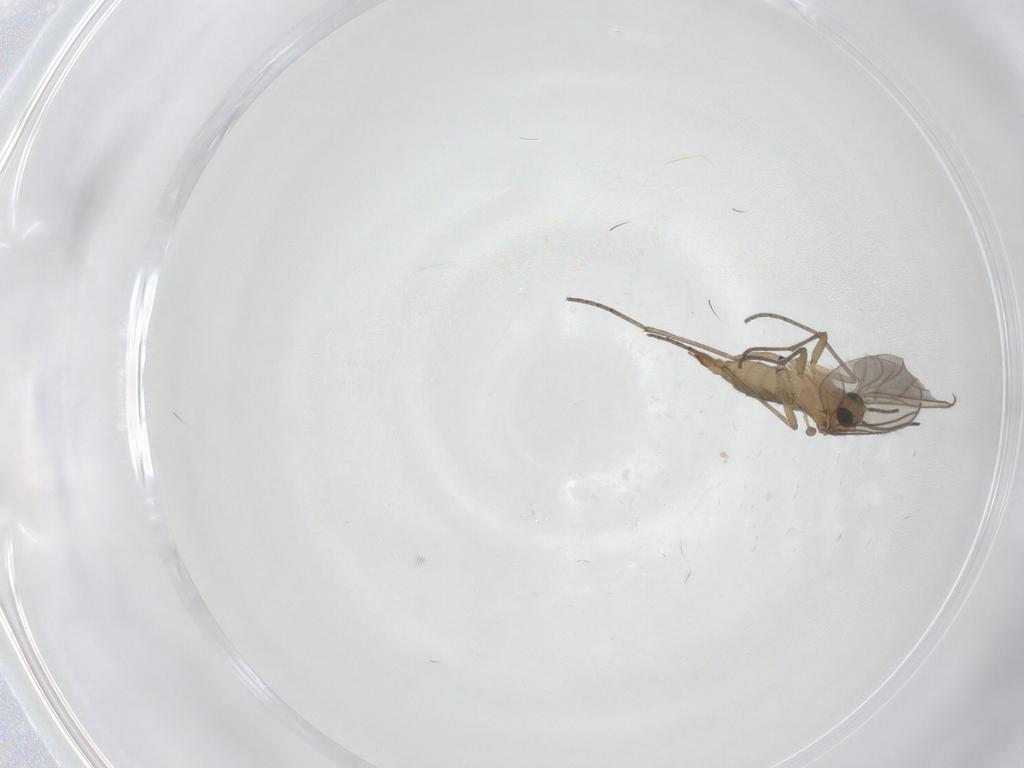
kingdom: Animalia
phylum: Arthropoda
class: Insecta
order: Diptera
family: Sciaridae
